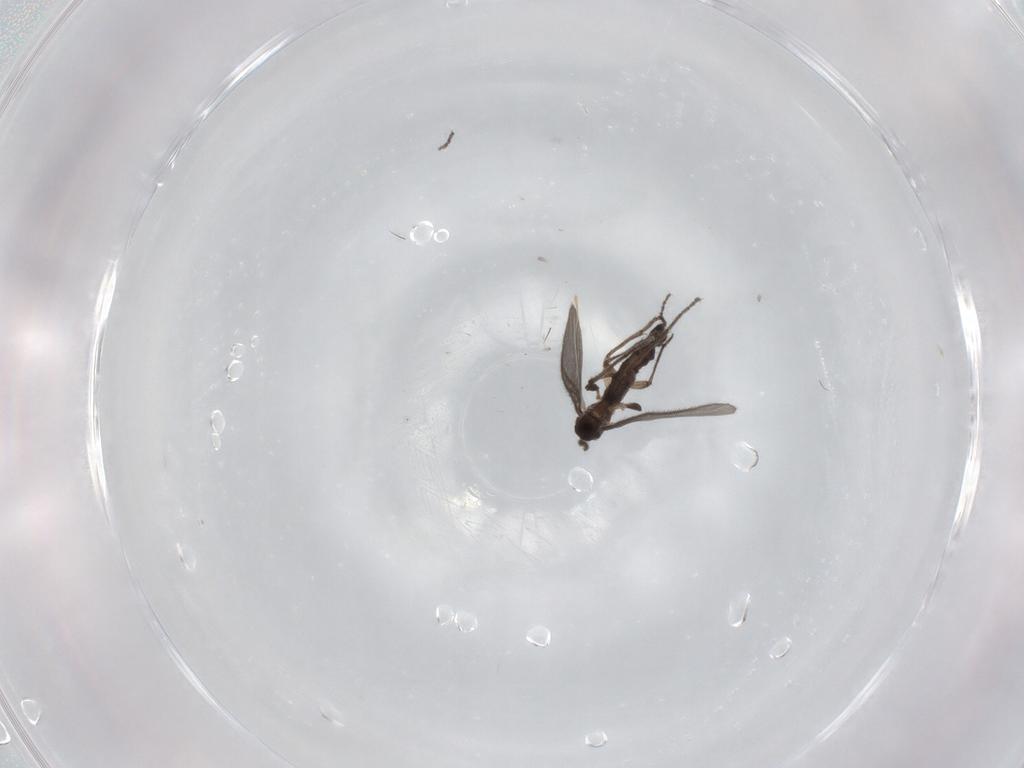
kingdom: Animalia
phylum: Arthropoda
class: Insecta
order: Diptera
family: Sciaridae
